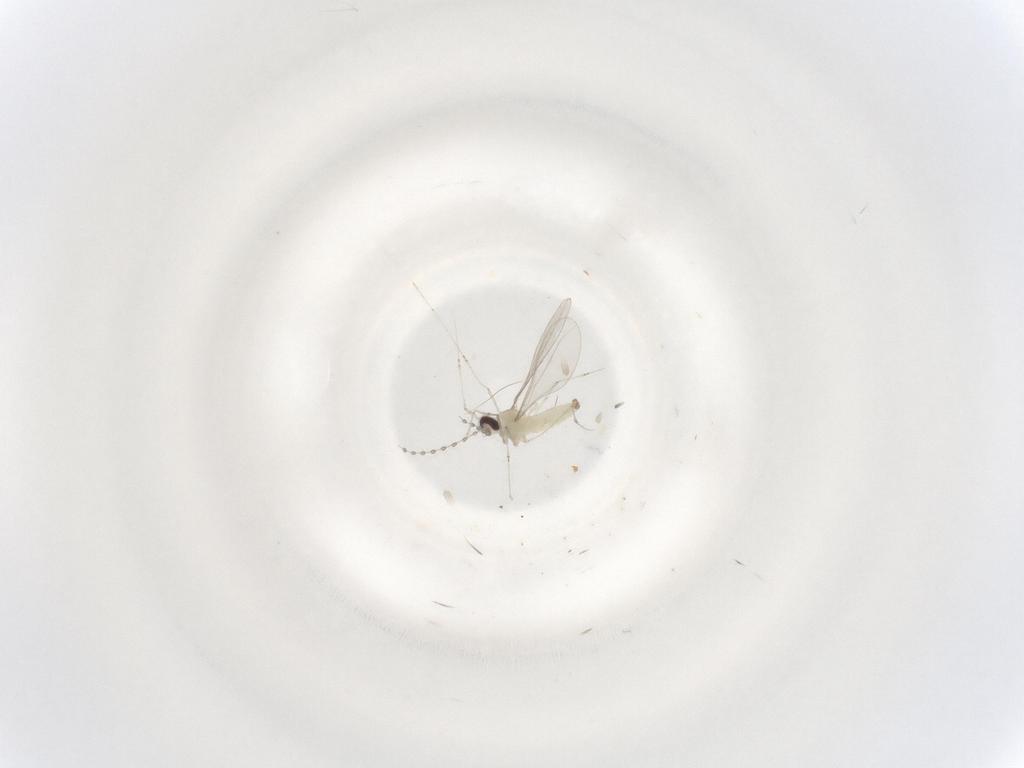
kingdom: Animalia
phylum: Arthropoda
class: Insecta
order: Diptera
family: Cecidomyiidae
